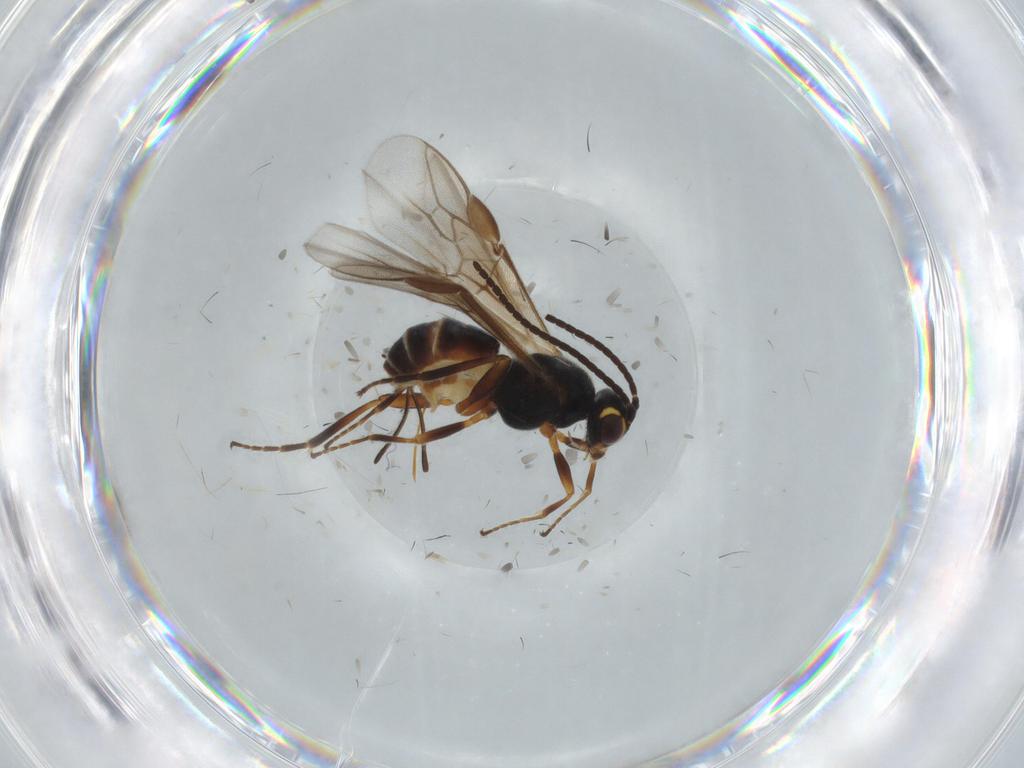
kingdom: Animalia
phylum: Arthropoda
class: Insecta
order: Hymenoptera
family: Braconidae
